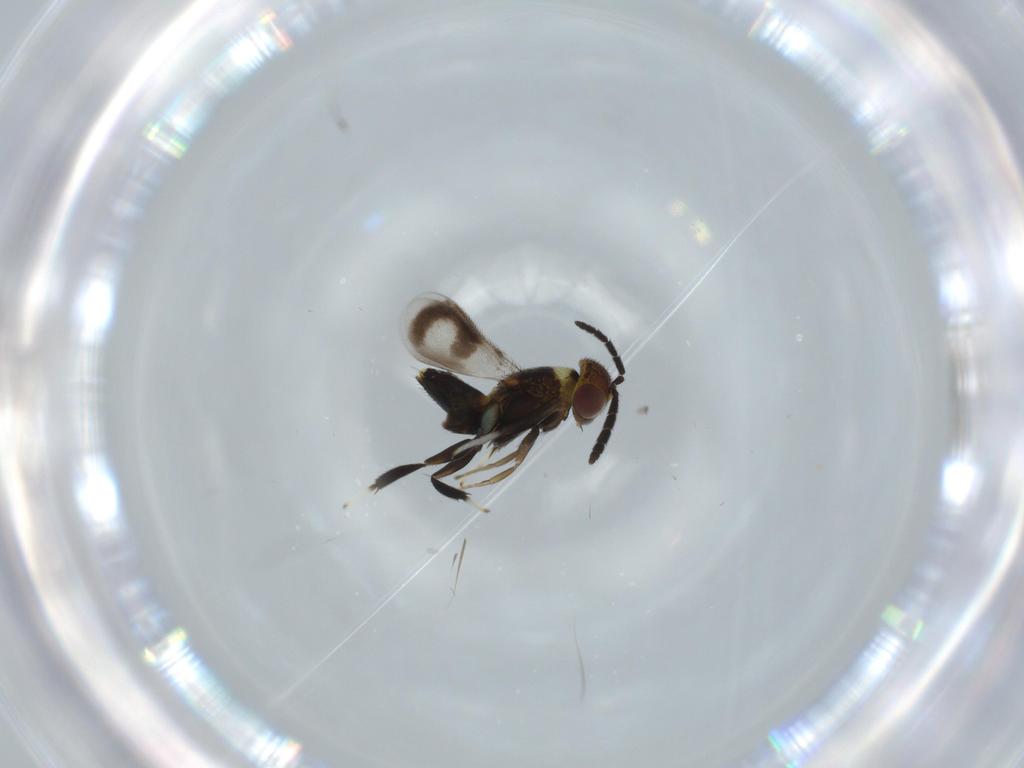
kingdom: Animalia
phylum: Arthropoda
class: Insecta
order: Hymenoptera
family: Aphelinidae
